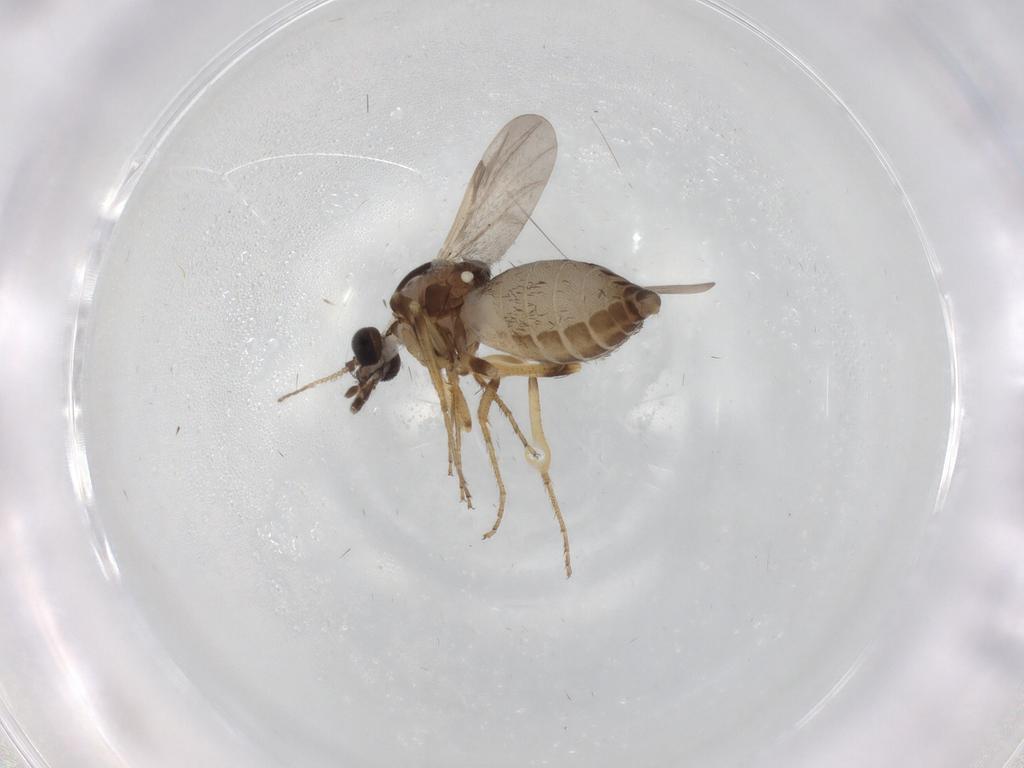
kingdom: Animalia
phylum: Arthropoda
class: Insecta
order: Diptera
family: Ceratopogonidae
